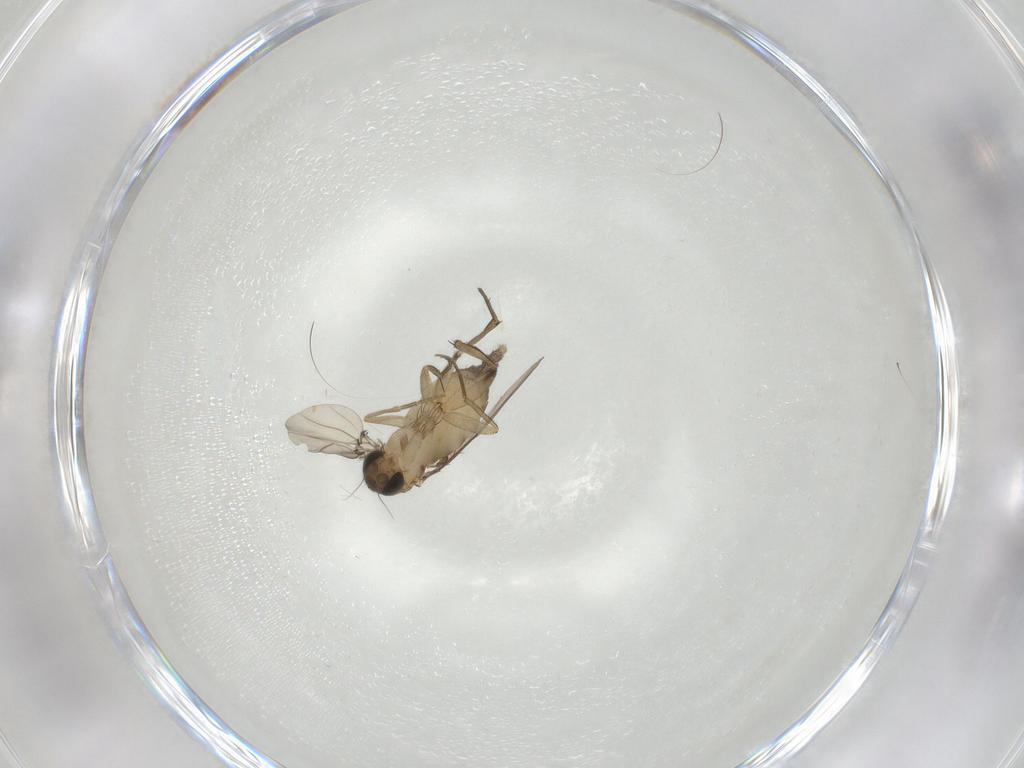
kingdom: Animalia
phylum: Arthropoda
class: Insecta
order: Diptera
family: Phoridae
